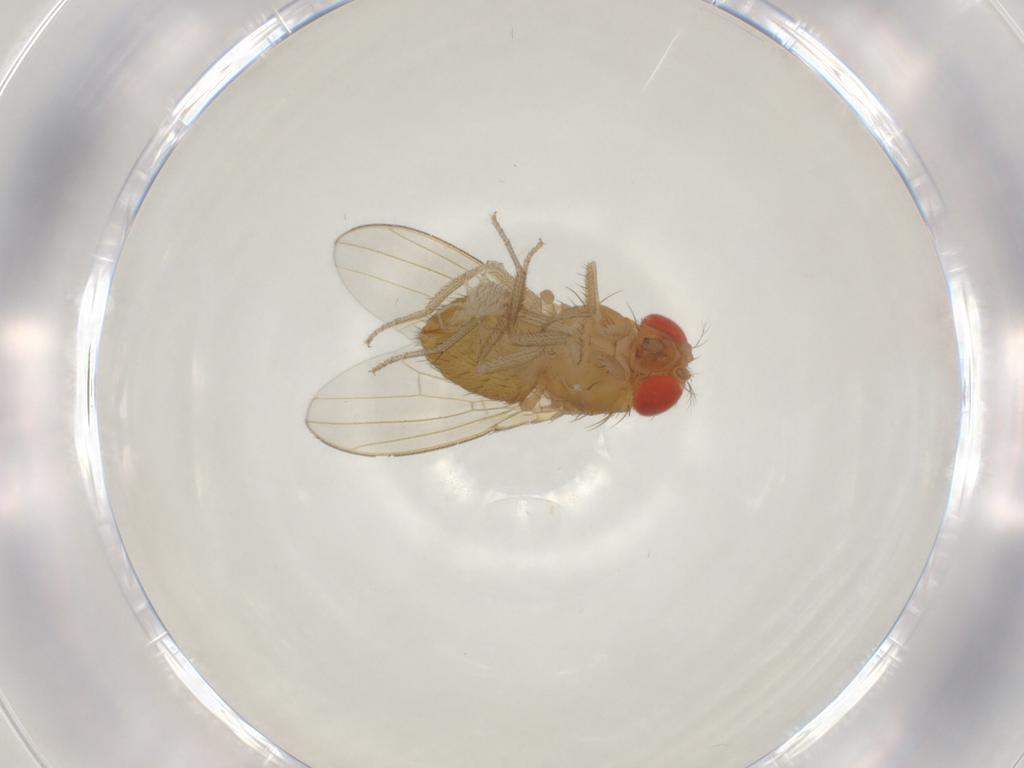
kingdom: Animalia
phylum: Arthropoda
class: Insecta
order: Diptera
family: Drosophilidae
